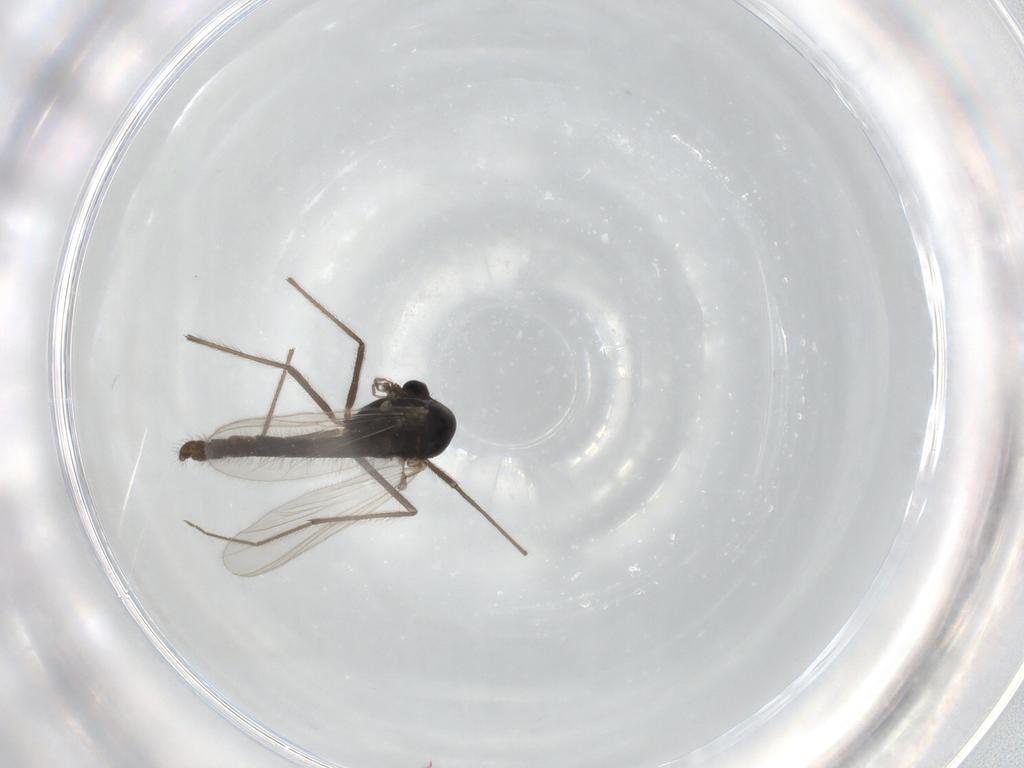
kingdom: Animalia
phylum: Arthropoda
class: Insecta
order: Diptera
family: Chironomidae
